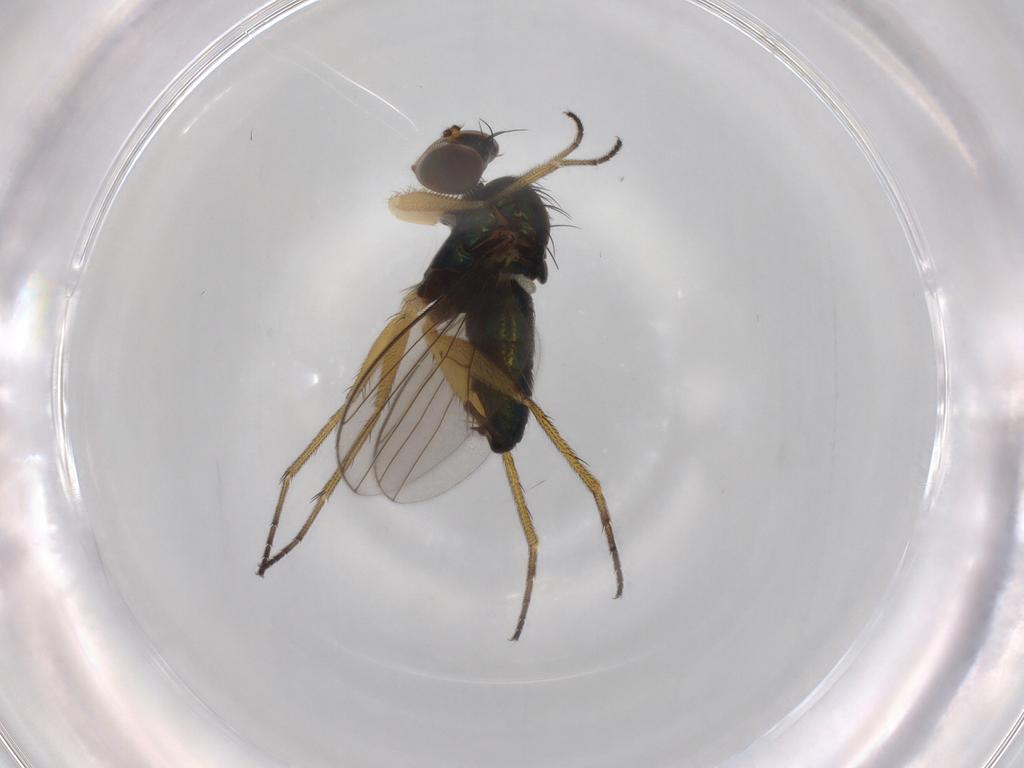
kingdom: Animalia
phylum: Arthropoda
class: Insecta
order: Diptera
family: Dolichopodidae
